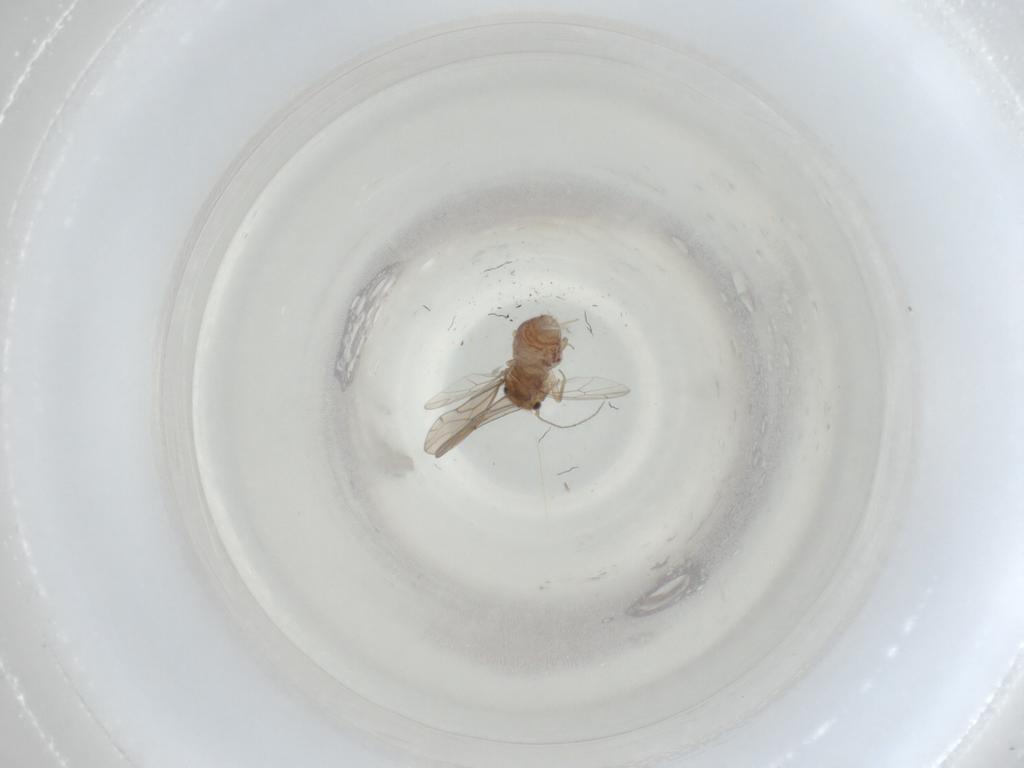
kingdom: Animalia
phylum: Arthropoda
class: Insecta
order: Psocodea
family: Ectopsocidae
